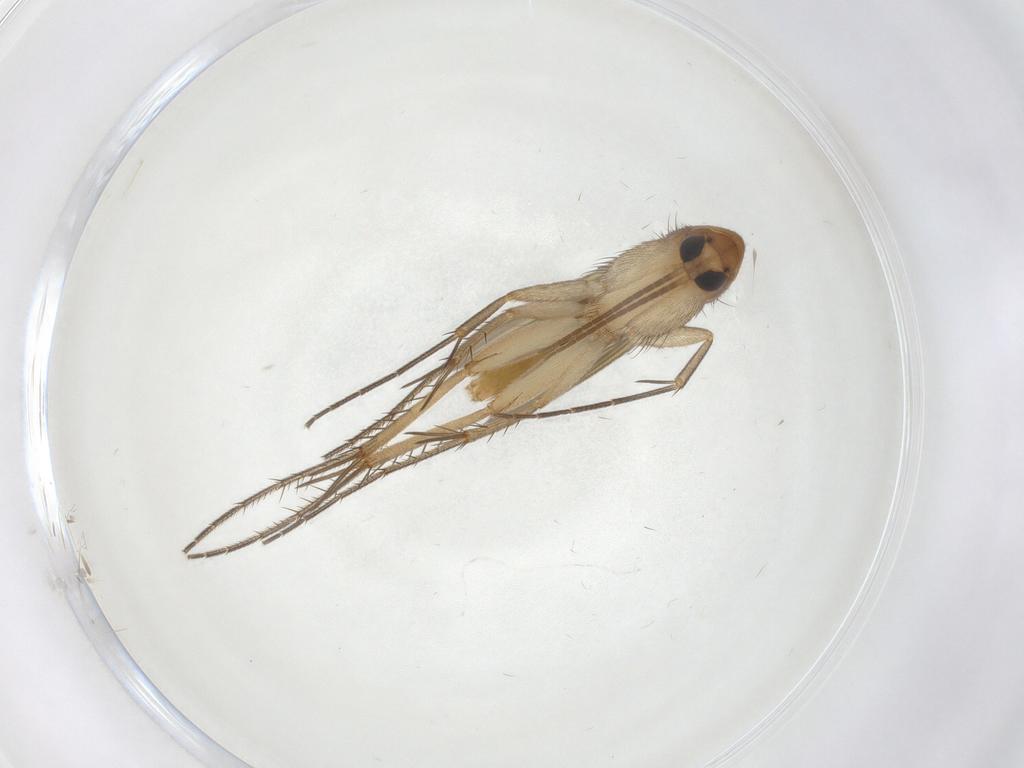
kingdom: Animalia
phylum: Arthropoda
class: Insecta
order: Diptera
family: Mycetophilidae
